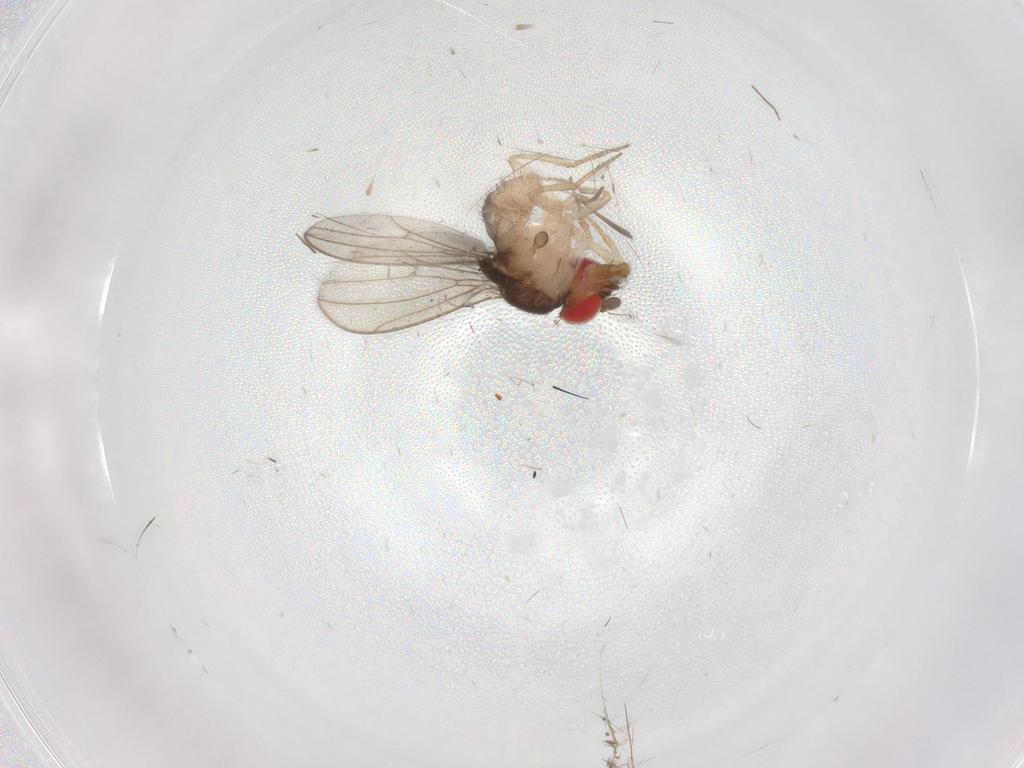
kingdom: Animalia
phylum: Arthropoda
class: Insecta
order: Diptera
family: Drosophilidae
